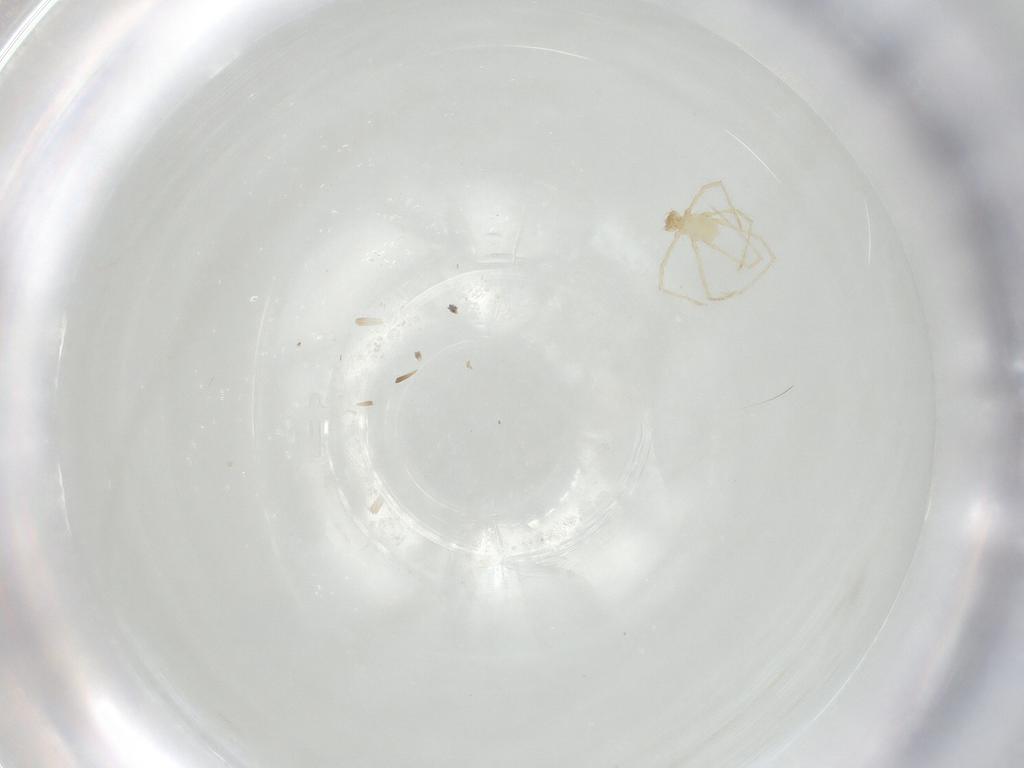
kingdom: Animalia
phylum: Arthropoda
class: Arachnida
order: Trombidiformes
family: Erythraeidae
